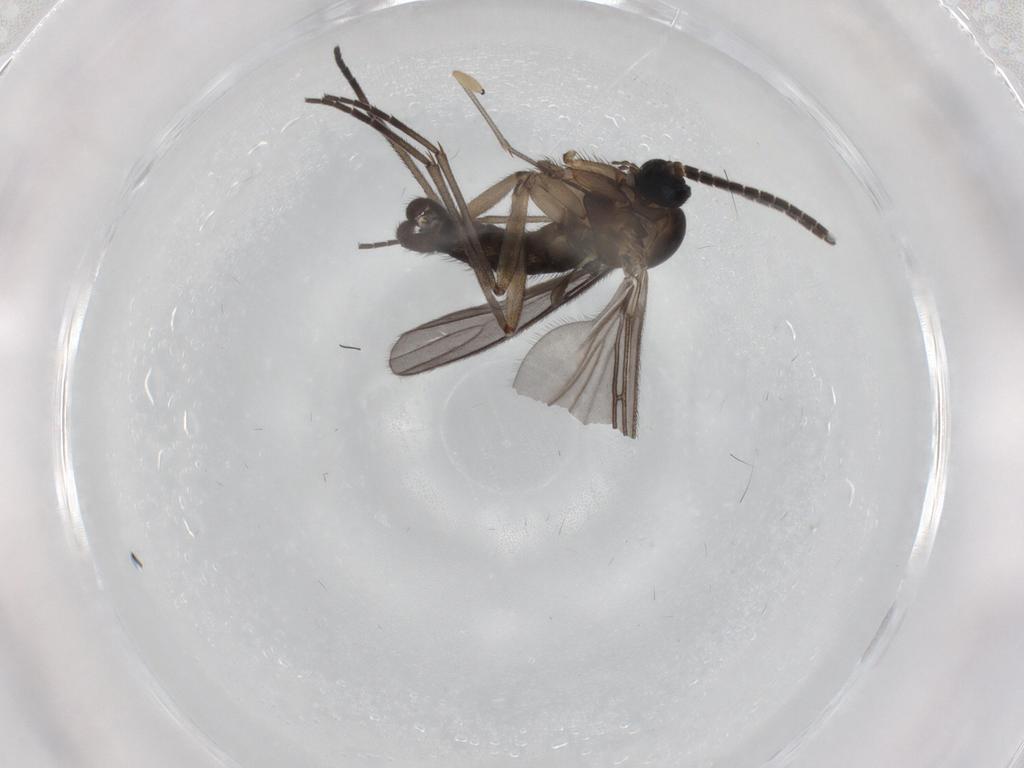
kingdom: Animalia
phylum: Arthropoda
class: Insecta
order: Diptera
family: Sciaridae
